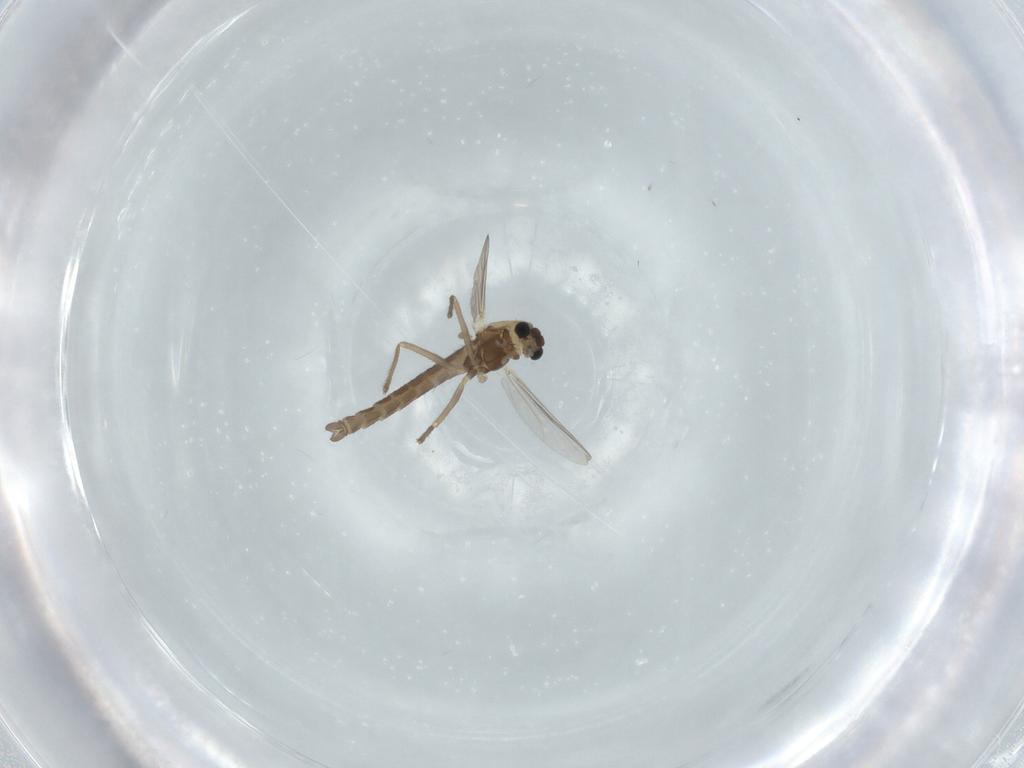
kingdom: Animalia
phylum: Arthropoda
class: Insecta
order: Diptera
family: Chironomidae
